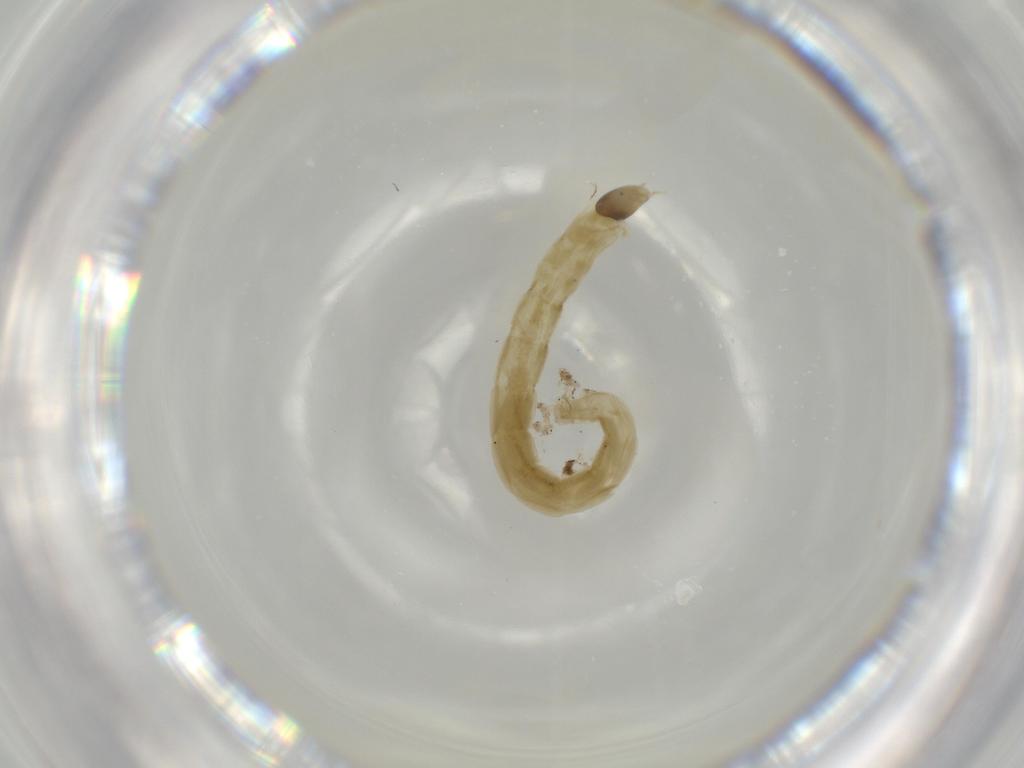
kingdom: Animalia
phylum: Arthropoda
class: Insecta
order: Diptera
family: Chironomidae
